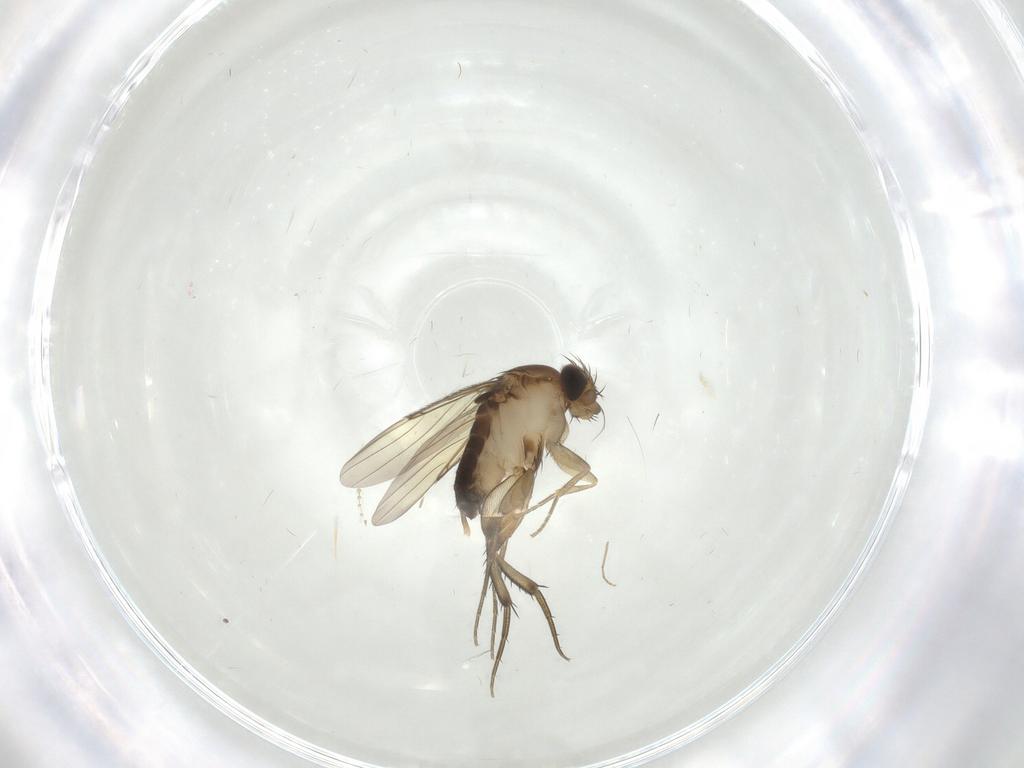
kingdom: Animalia
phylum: Arthropoda
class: Insecta
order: Diptera
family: Phoridae
